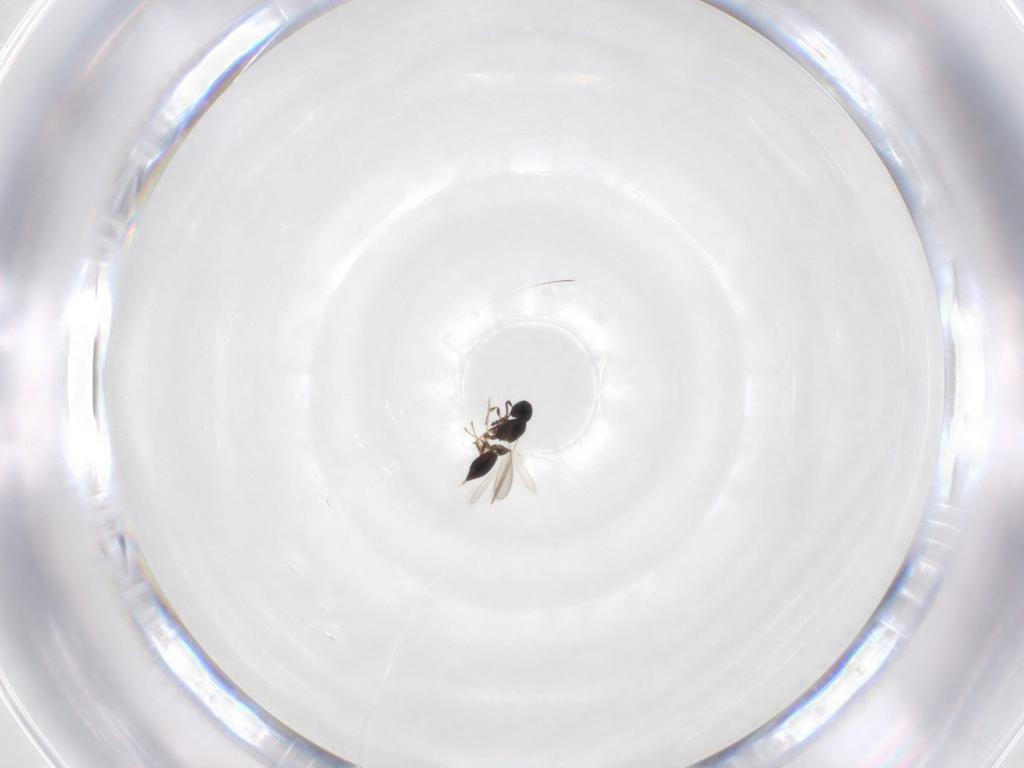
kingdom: Animalia
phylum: Arthropoda
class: Insecta
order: Hymenoptera
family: Scelionidae
